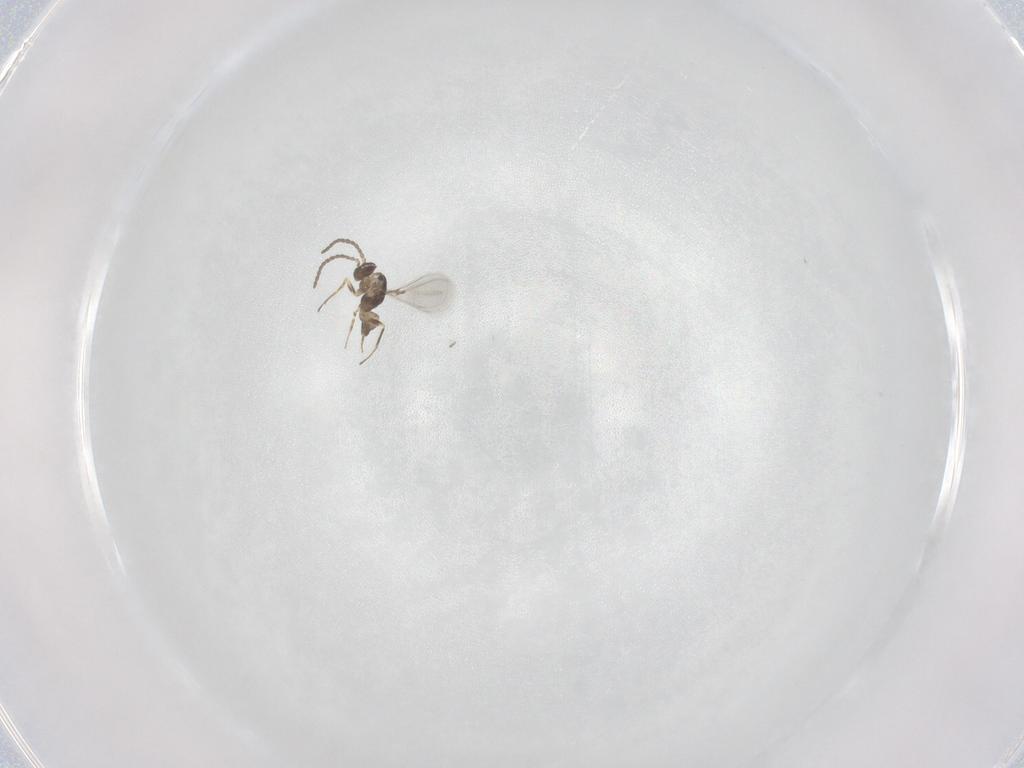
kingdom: Animalia
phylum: Arthropoda
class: Insecta
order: Hymenoptera
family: Mymaridae
